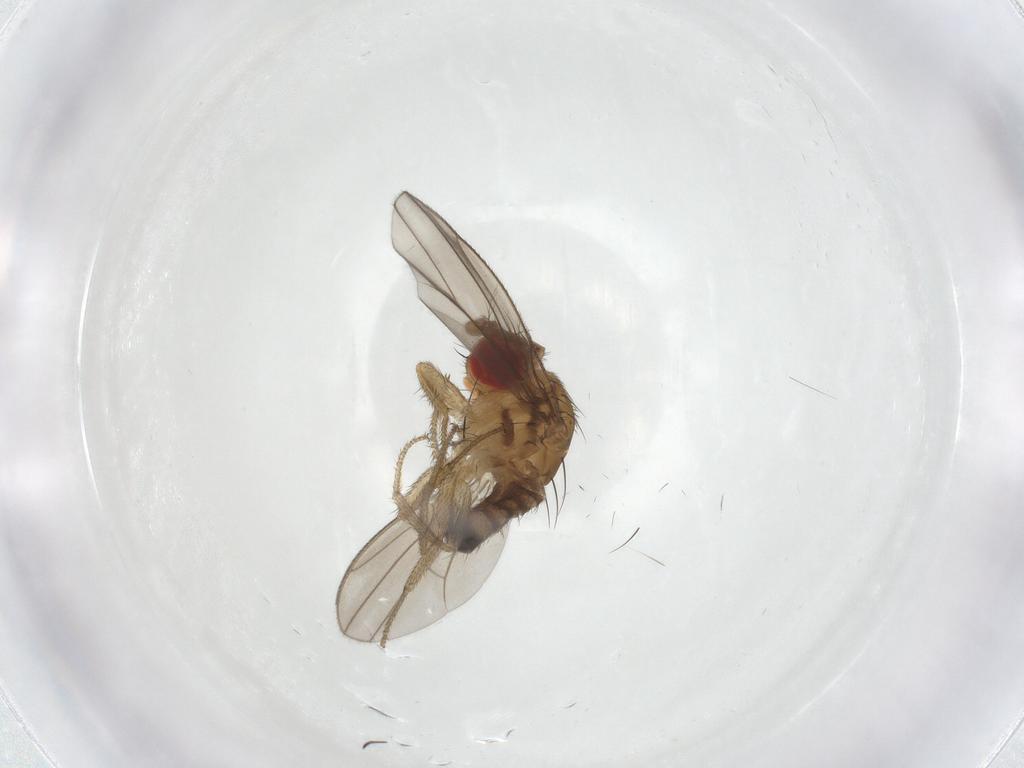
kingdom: Animalia
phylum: Arthropoda
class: Insecta
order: Diptera
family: Drosophilidae
